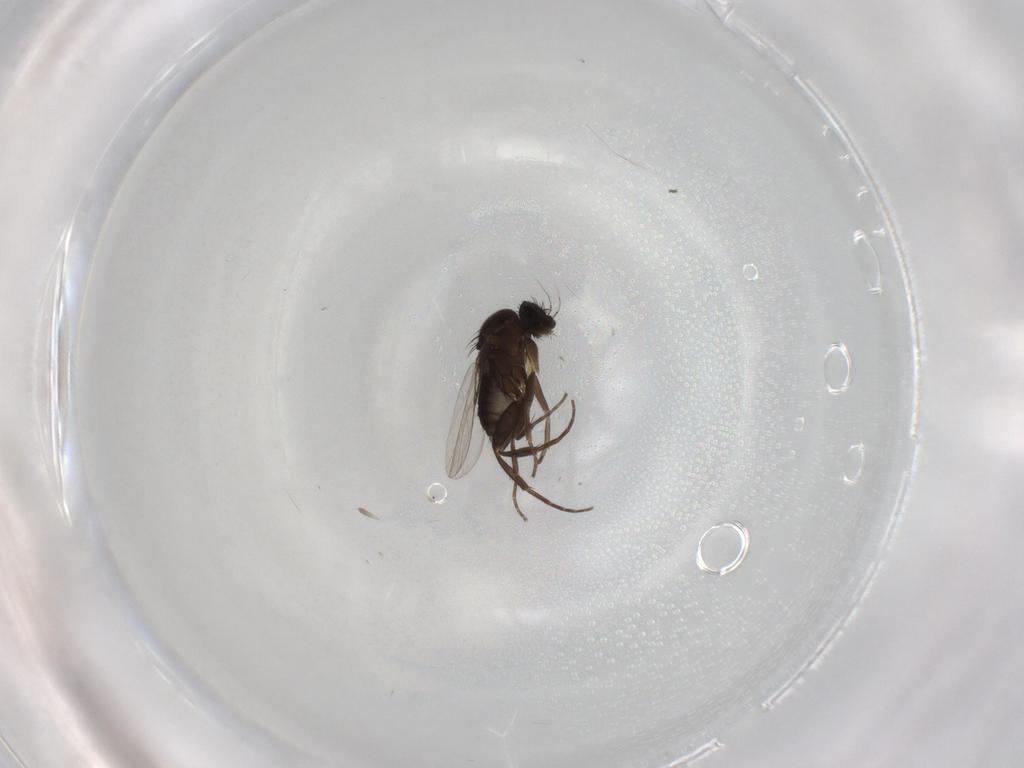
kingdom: Animalia
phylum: Arthropoda
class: Insecta
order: Diptera
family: Phoridae
